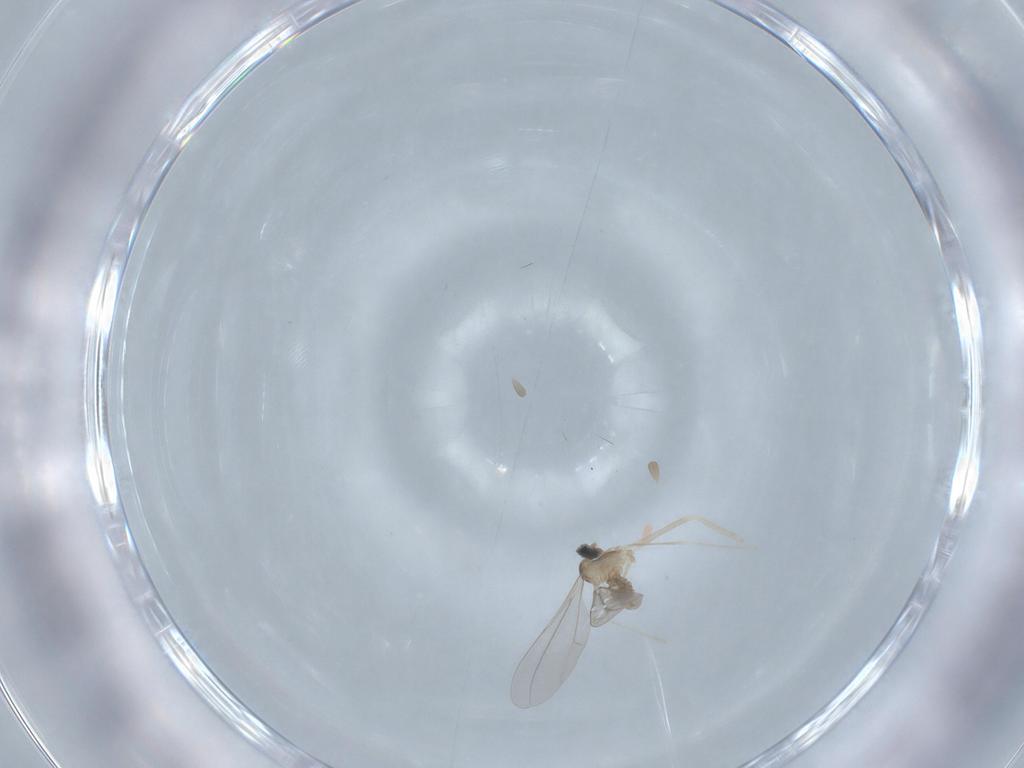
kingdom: Animalia
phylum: Arthropoda
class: Insecta
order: Diptera
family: Cecidomyiidae
